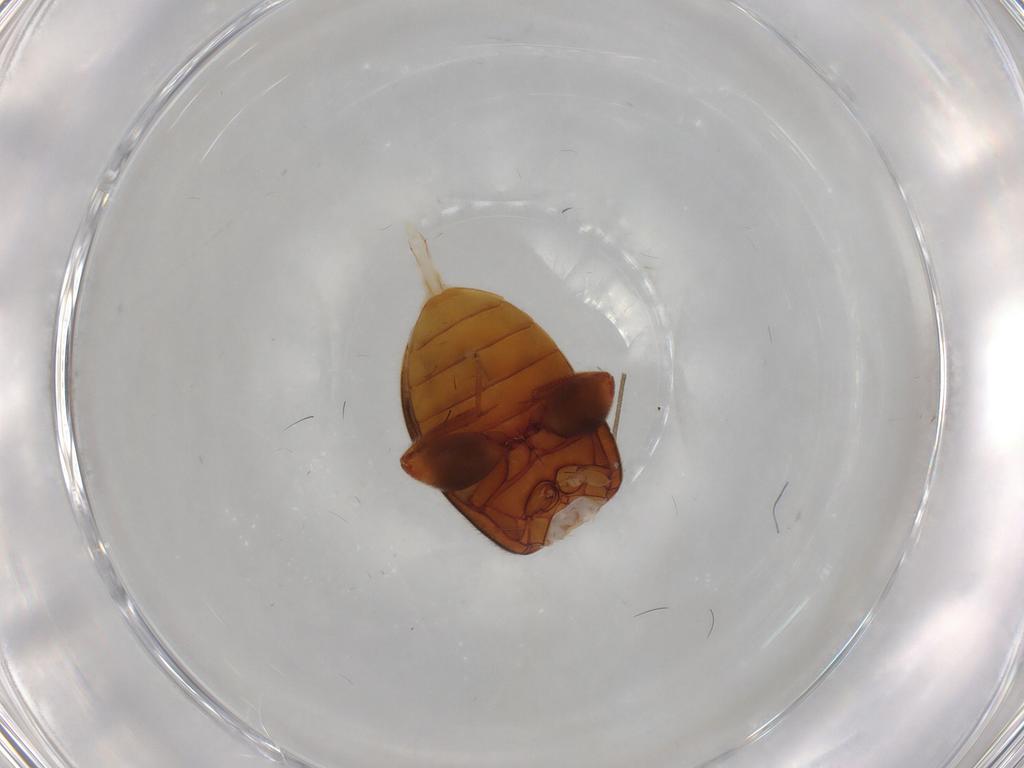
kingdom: Animalia
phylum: Arthropoda
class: Insecta
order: Coleoptera
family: Scirtidae
